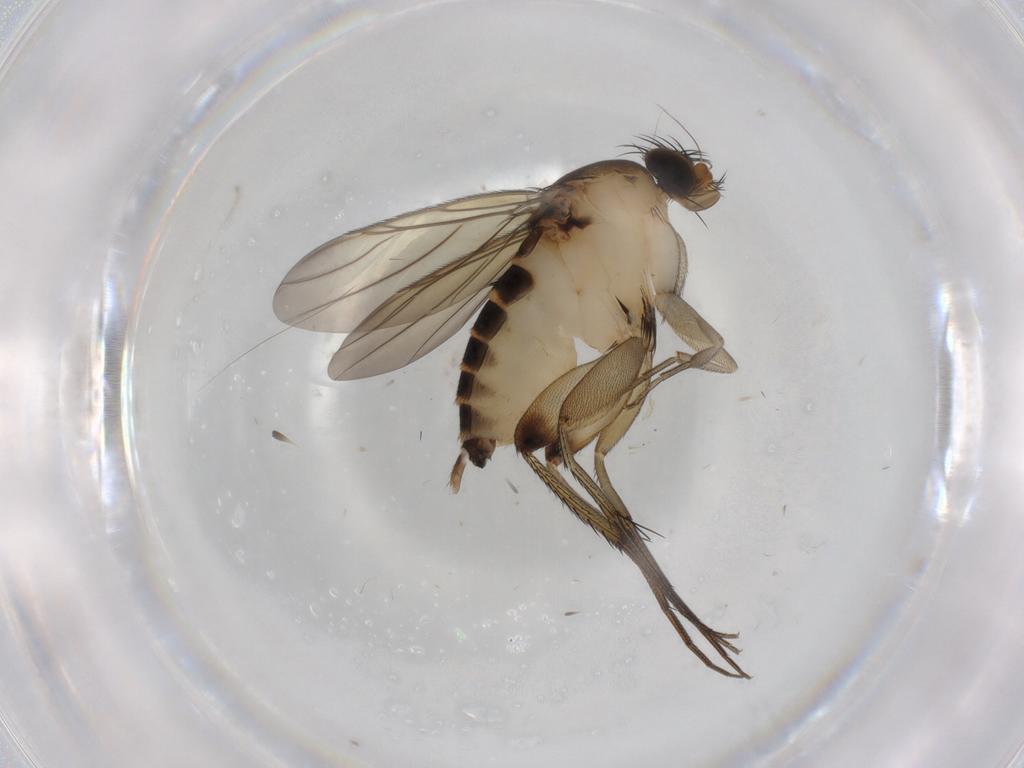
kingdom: Animalia
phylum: Arthropoda
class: Insecta
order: Diptera
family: Phoridae
